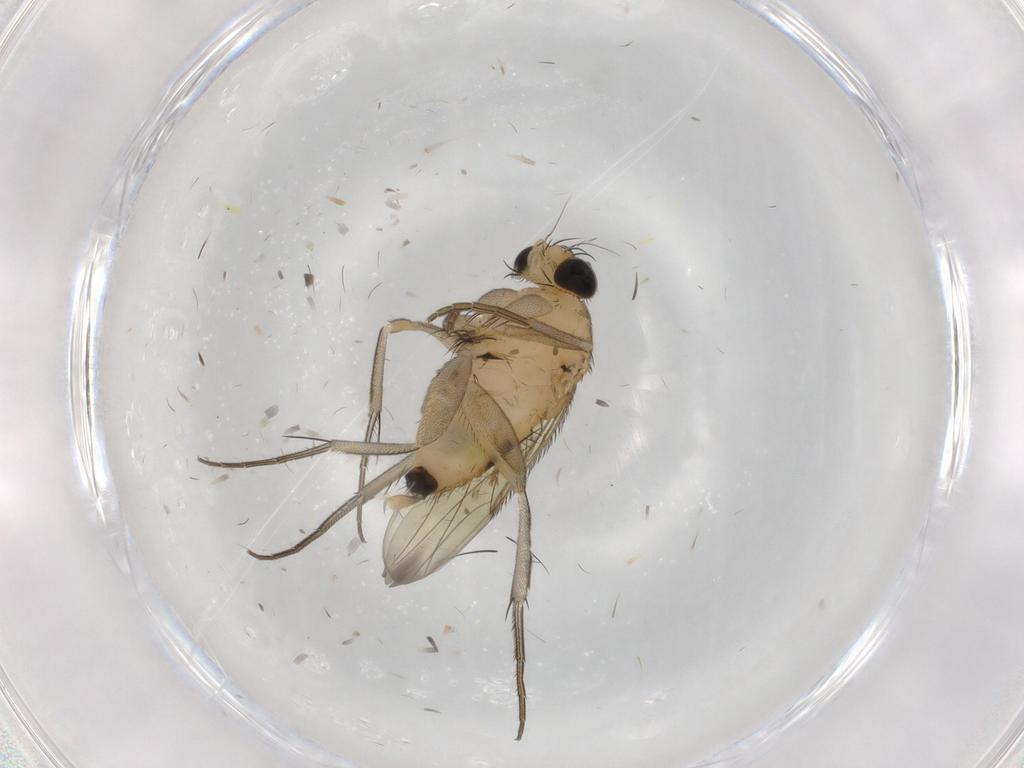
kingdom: Animalia
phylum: Arthropoda
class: Insecta
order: Diptera
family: Phoridae
